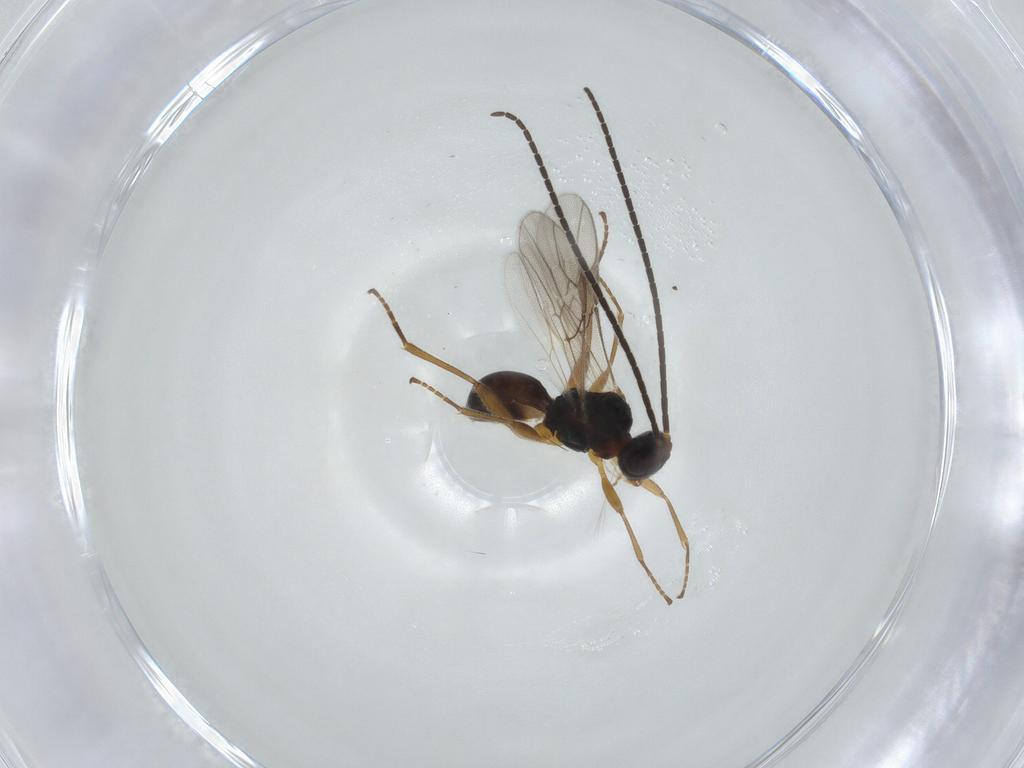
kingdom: Animalia
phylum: Arthropoda
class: Insecta
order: Hymenoptera
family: Braconidae
